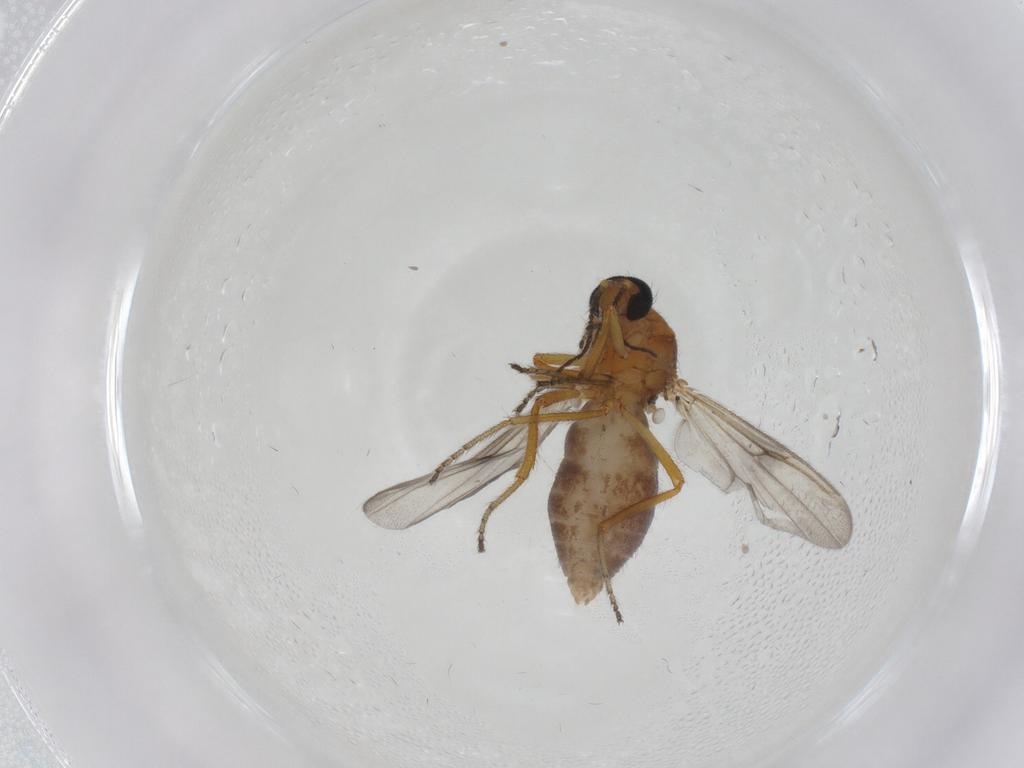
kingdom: Animalia
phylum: Arthropoda
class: Insecta
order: Diptera
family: Ceratopogonidae
